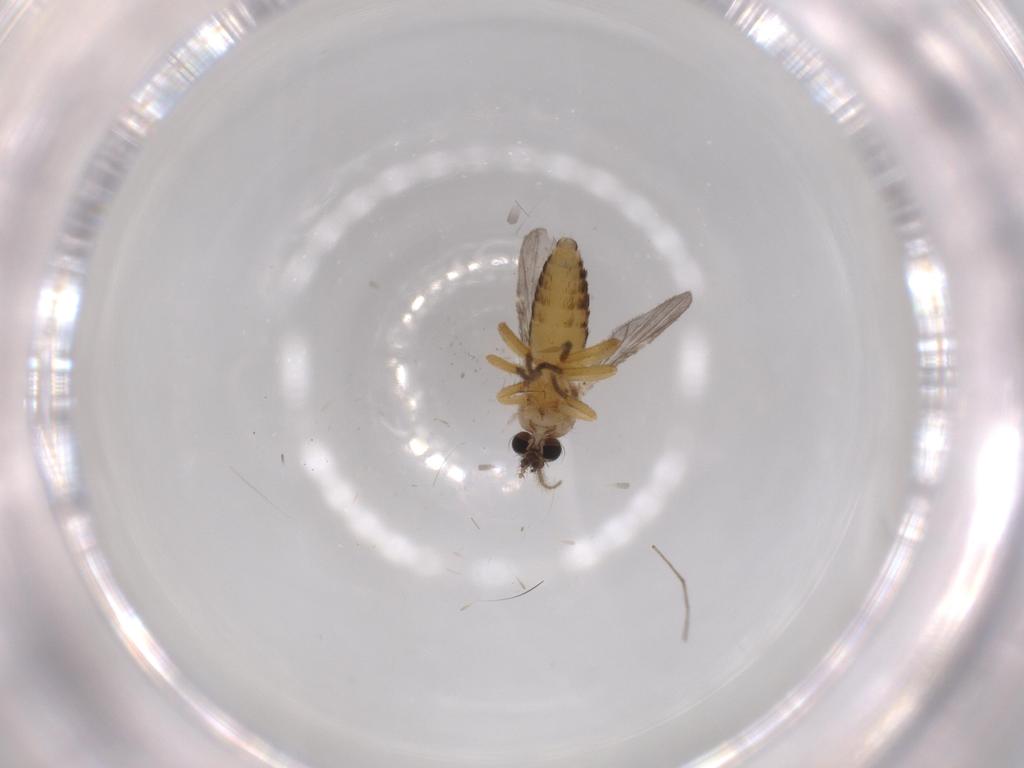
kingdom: Animalia
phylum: Arthropoda
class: Insecta
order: Diptera
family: Ceratopogonidae
